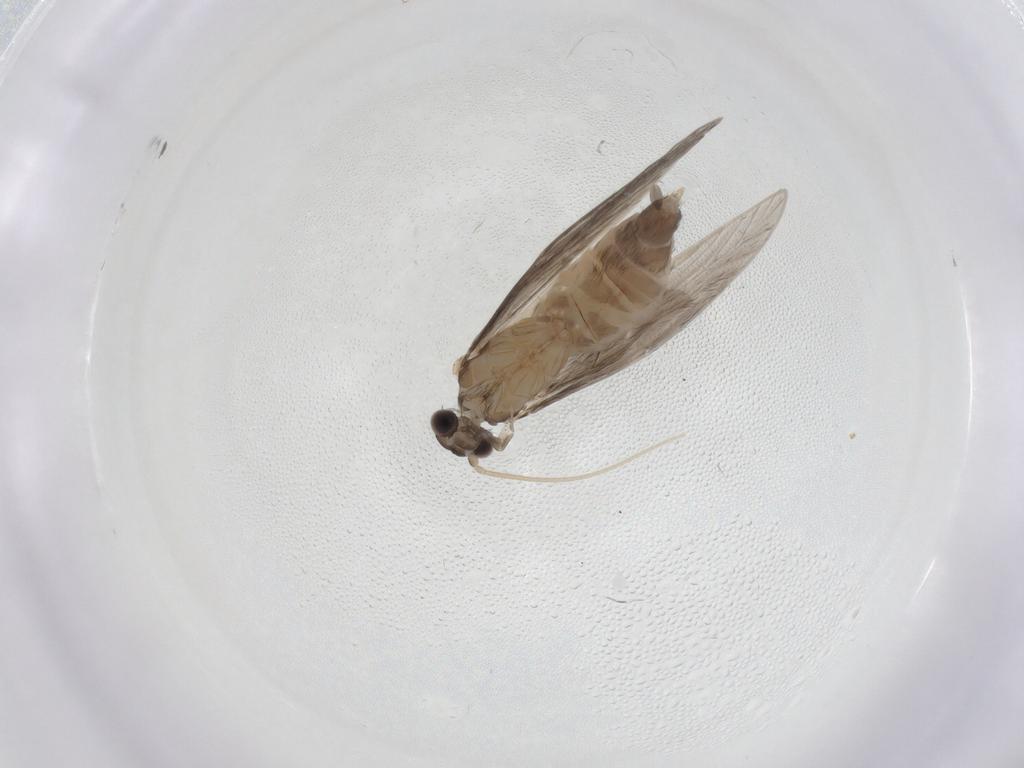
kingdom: Animalia
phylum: Arthropoda
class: Insecta
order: Trichoptera
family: Hydroptilidae
